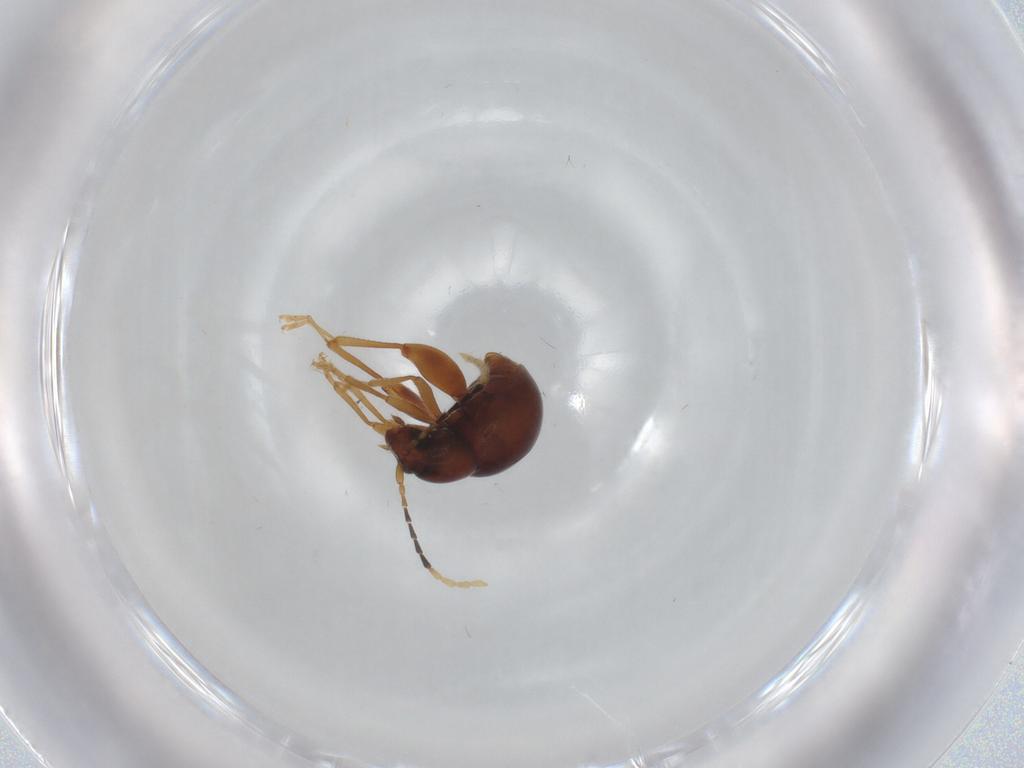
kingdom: Animalia
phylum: Arthropoda
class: Insecta
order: Coleoptera
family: Chrysomelidae
